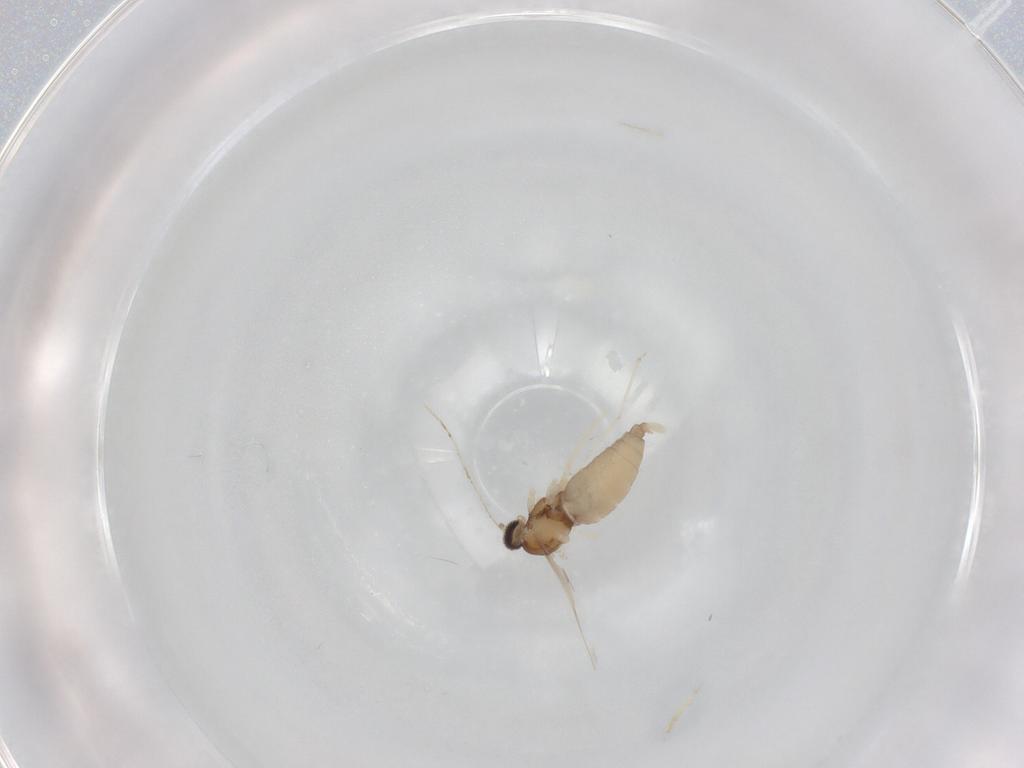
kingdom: Animalia
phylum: Arthropoda
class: Insecta
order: Diptera
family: Cecidomyiidae
